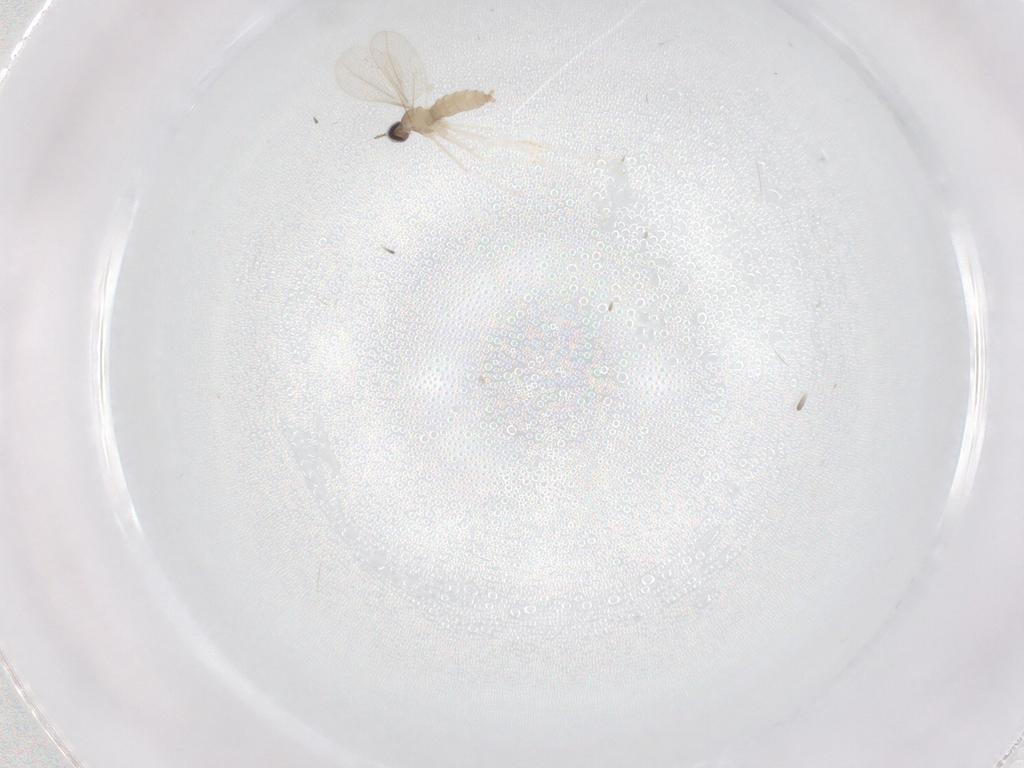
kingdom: Animalia
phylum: Arthropoda
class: Insecta
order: Diptera
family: Cecidomyiidae
